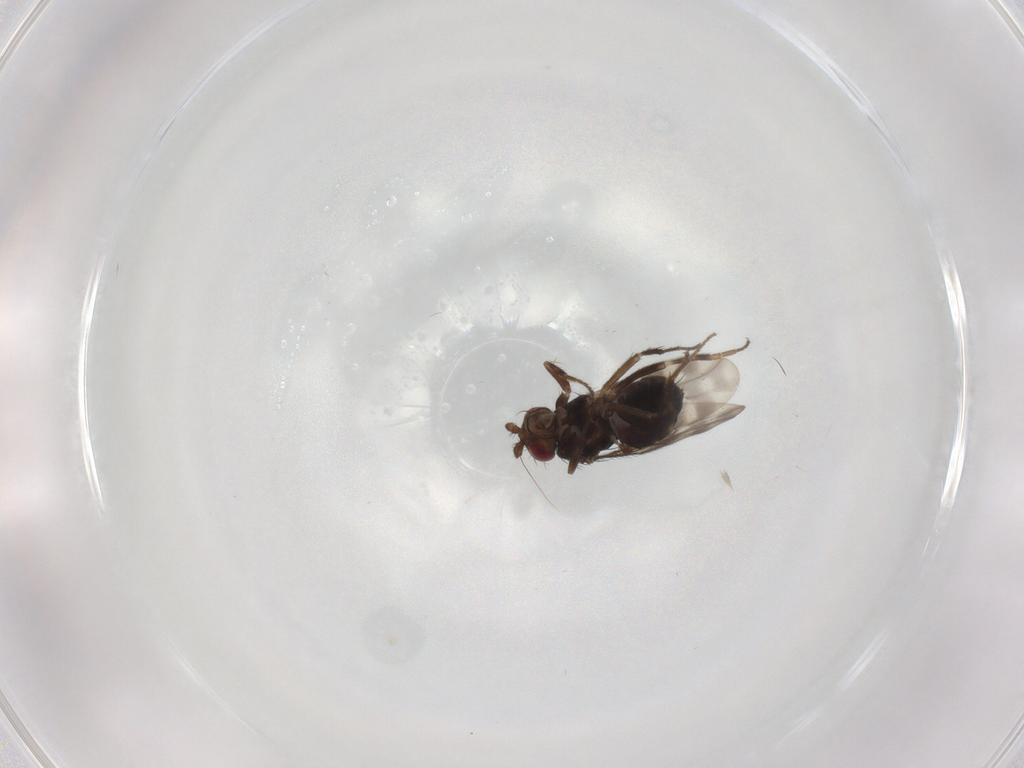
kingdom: Animalia
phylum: Arthropoda
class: Insecta
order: Diptera
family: Sphaeroceridae
